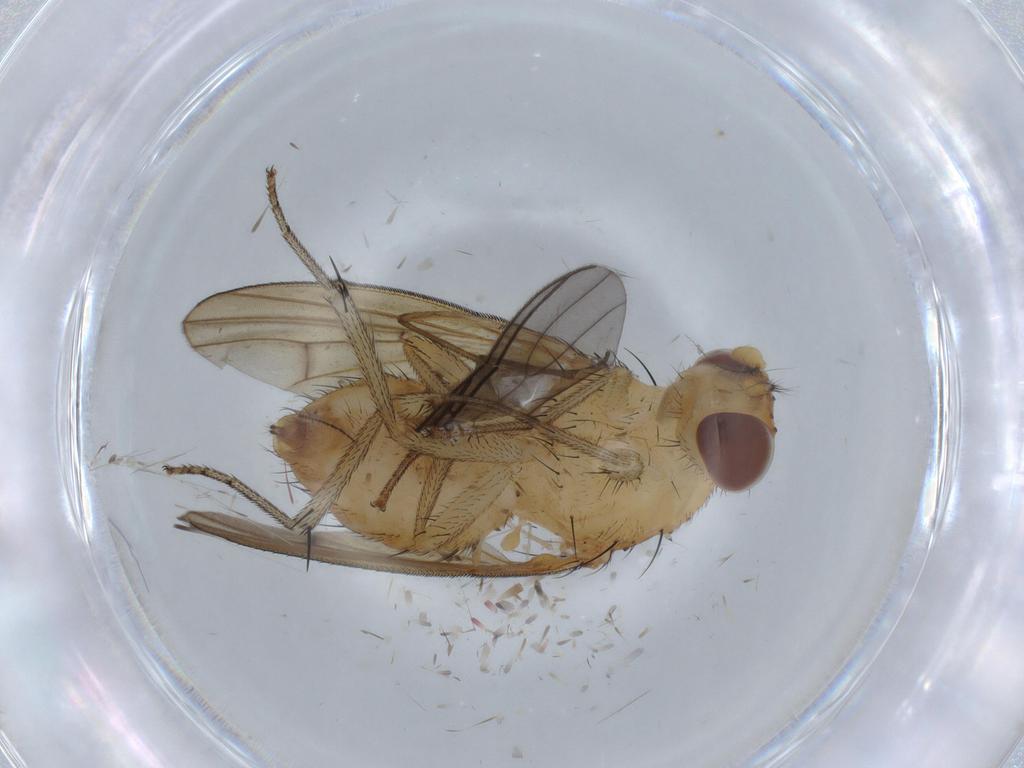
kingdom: Animalia
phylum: Arthropoda
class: Insecta
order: Diptera
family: Lauxaniidae
